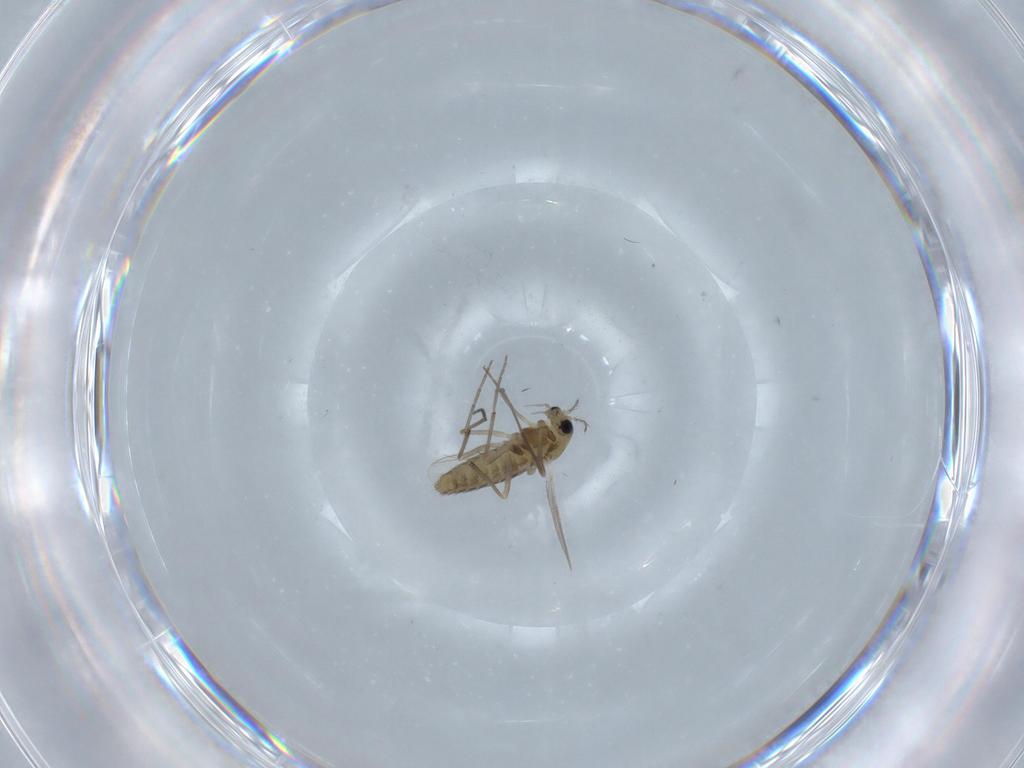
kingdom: Animalia
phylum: Arthropoda
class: Insecta
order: Diptera
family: Chironomidae
